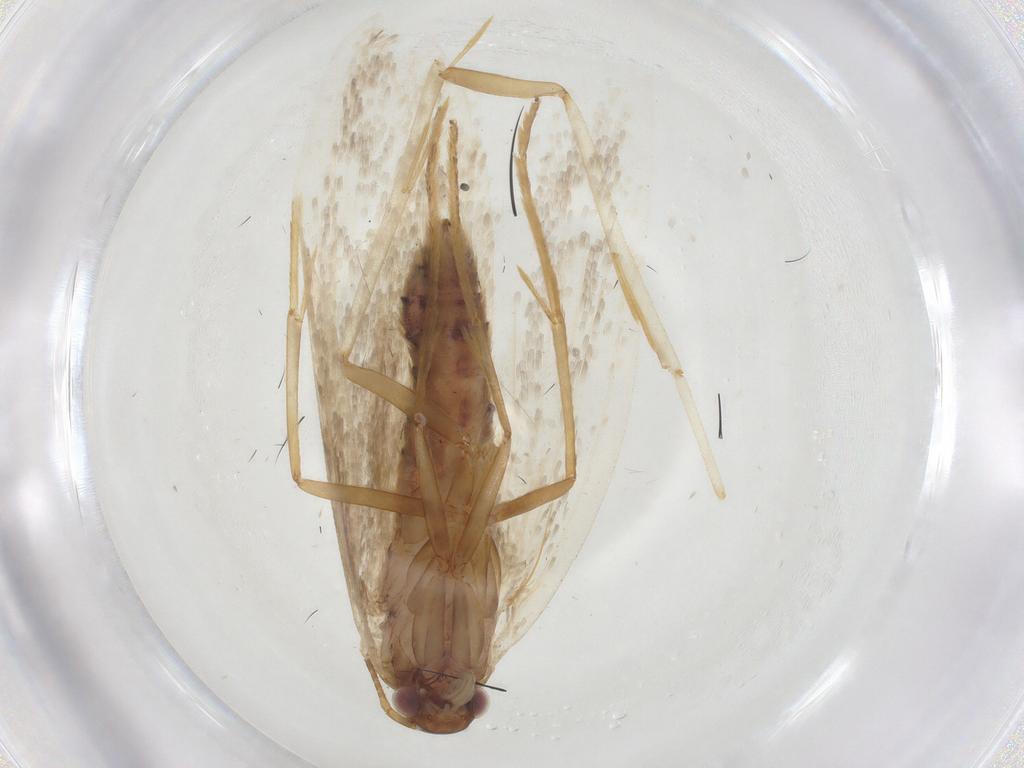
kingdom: Animalia
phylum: Arthropoda
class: Insecta
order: Lepidoptera
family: Oecophoridae
